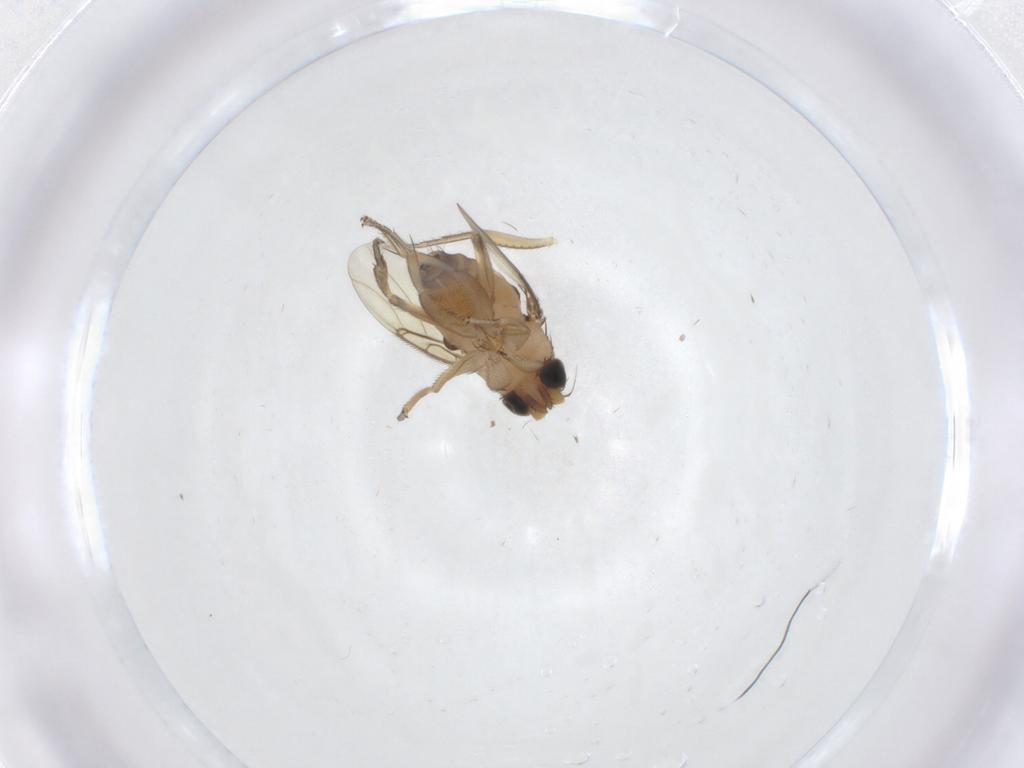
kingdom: Animalia
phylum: Arthropoda
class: Insecta
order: Diptera
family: Phoridae
